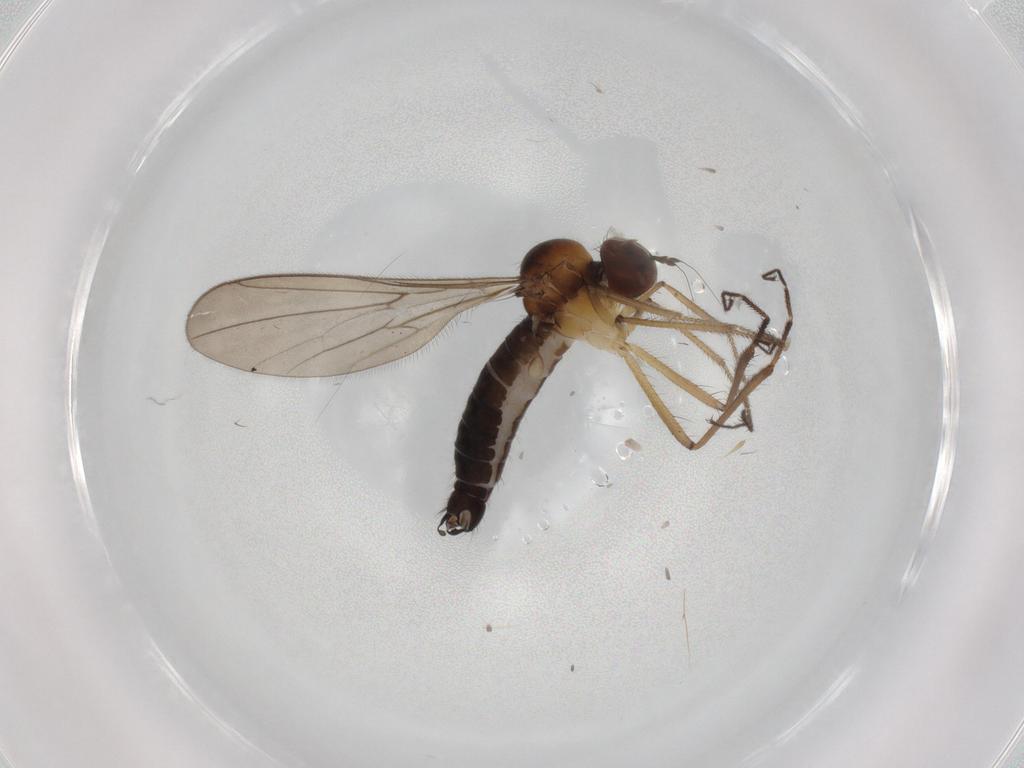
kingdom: Animalia
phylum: Arthropoda
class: Insecta
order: Diptera
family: Hybotidae
